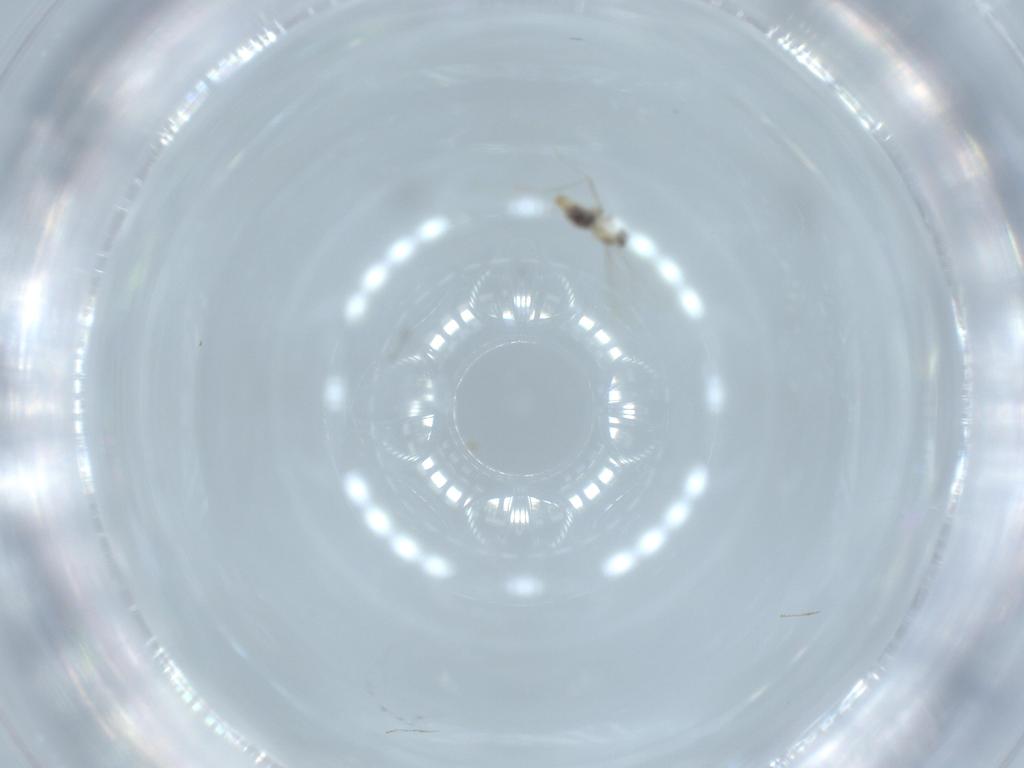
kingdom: Animalia
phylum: Arthropoda
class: Insecta
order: Diptera
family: Cecidomyiidae
